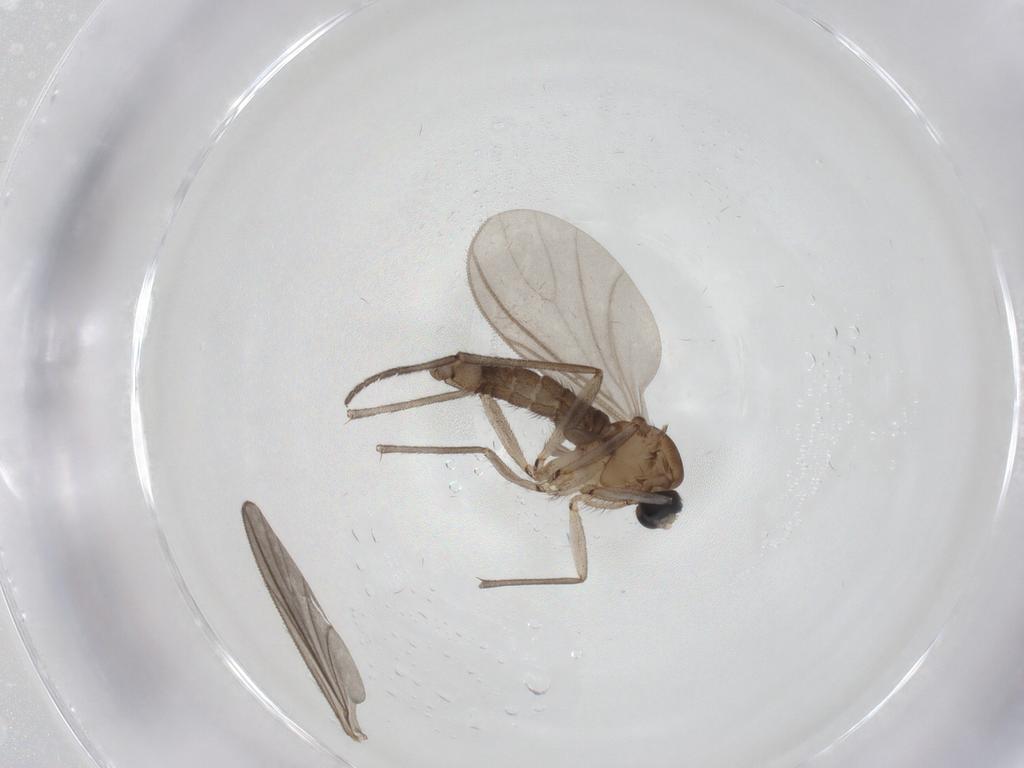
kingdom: Animalia
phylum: Arthropoda
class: Insecta
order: Diptera
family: Sciaridae
